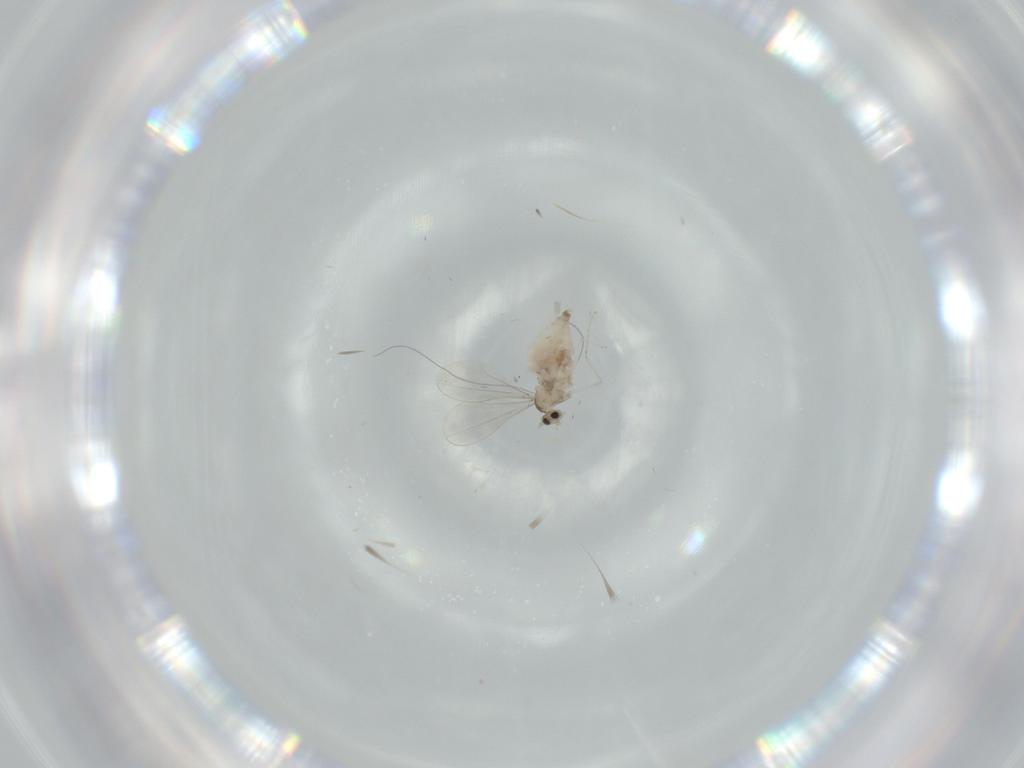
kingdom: Animalia
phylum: Arthropoda
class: Insecta
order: Diptera
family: Cecidomyiidae
